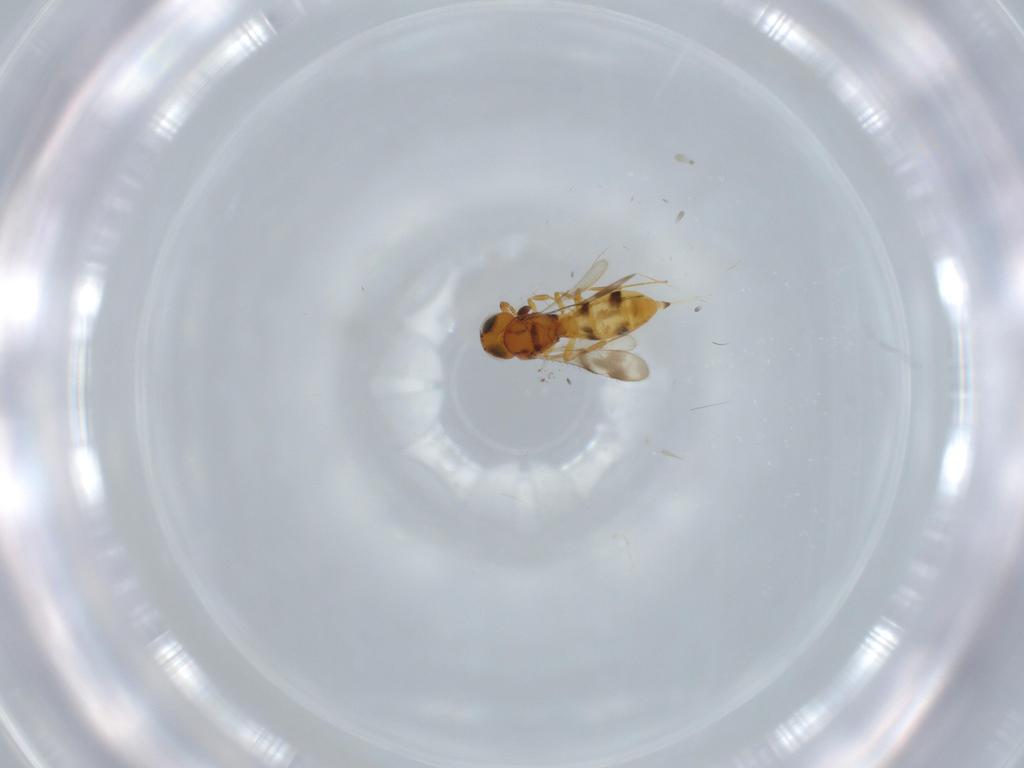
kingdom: Animalia
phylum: Arthropoda
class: Insecta
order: Hymenoptera
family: Scelionidae
